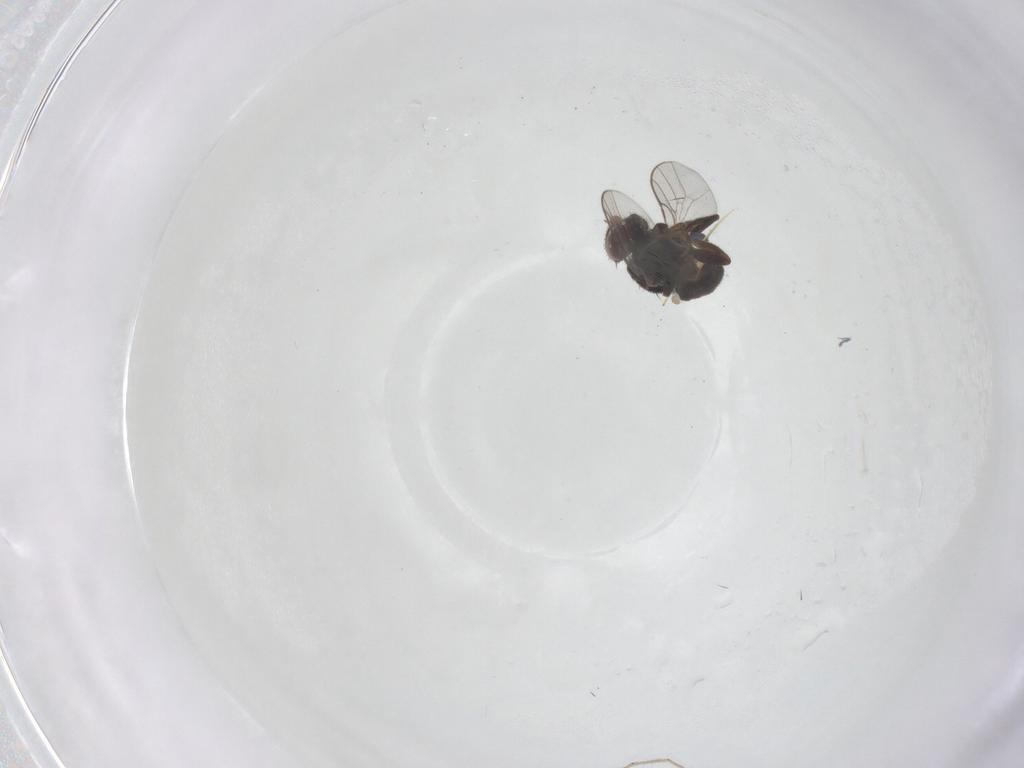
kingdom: Animalia
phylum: Arthropoda
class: Insecta
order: Diptera
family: Chloropidae
